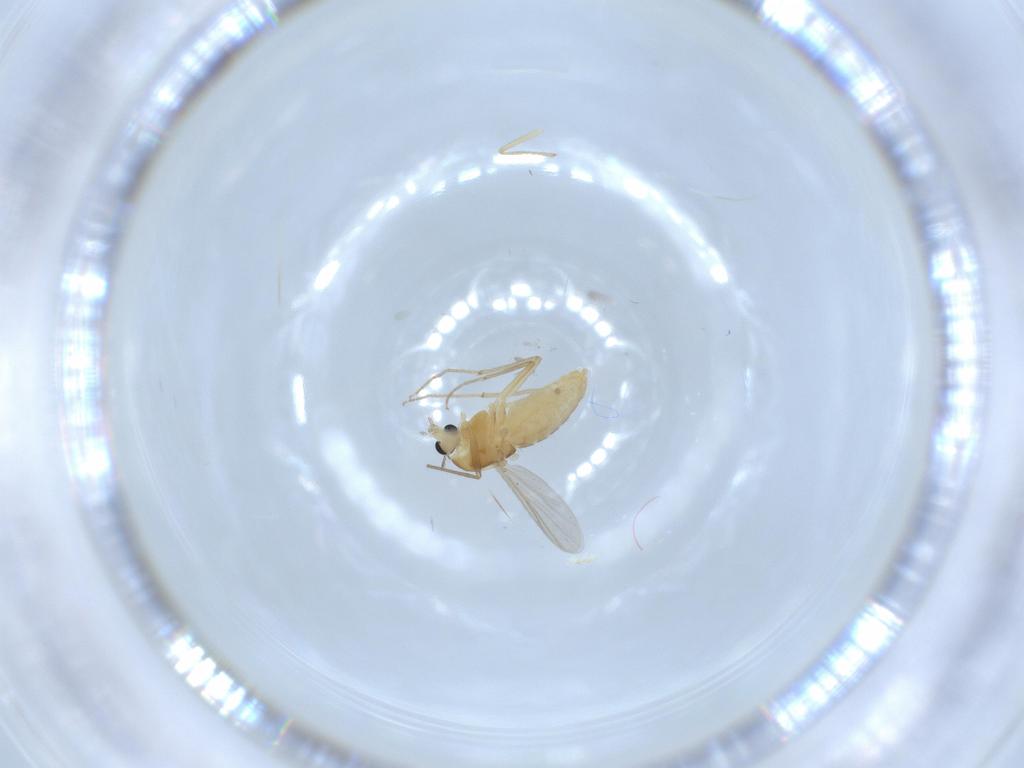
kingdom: Animalia
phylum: Arthropoda
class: Insecta
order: Diptera
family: Chironomidae
